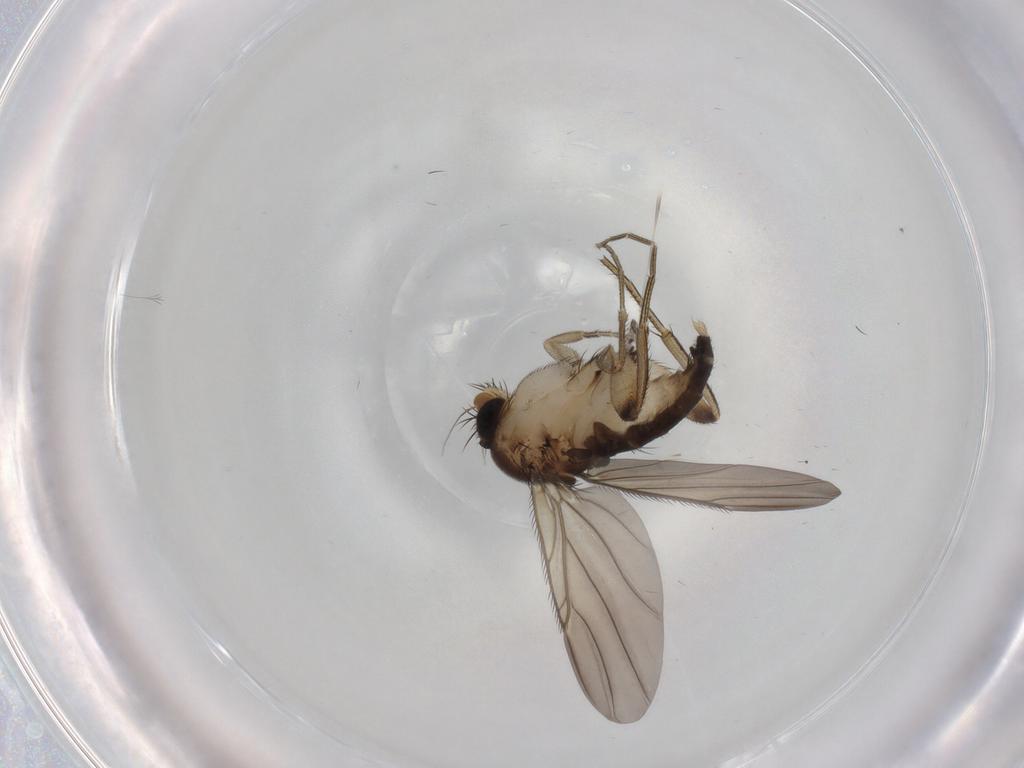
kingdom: Animalia
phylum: Arthropoda
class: Insecta
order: Diptera
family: Phoridae
